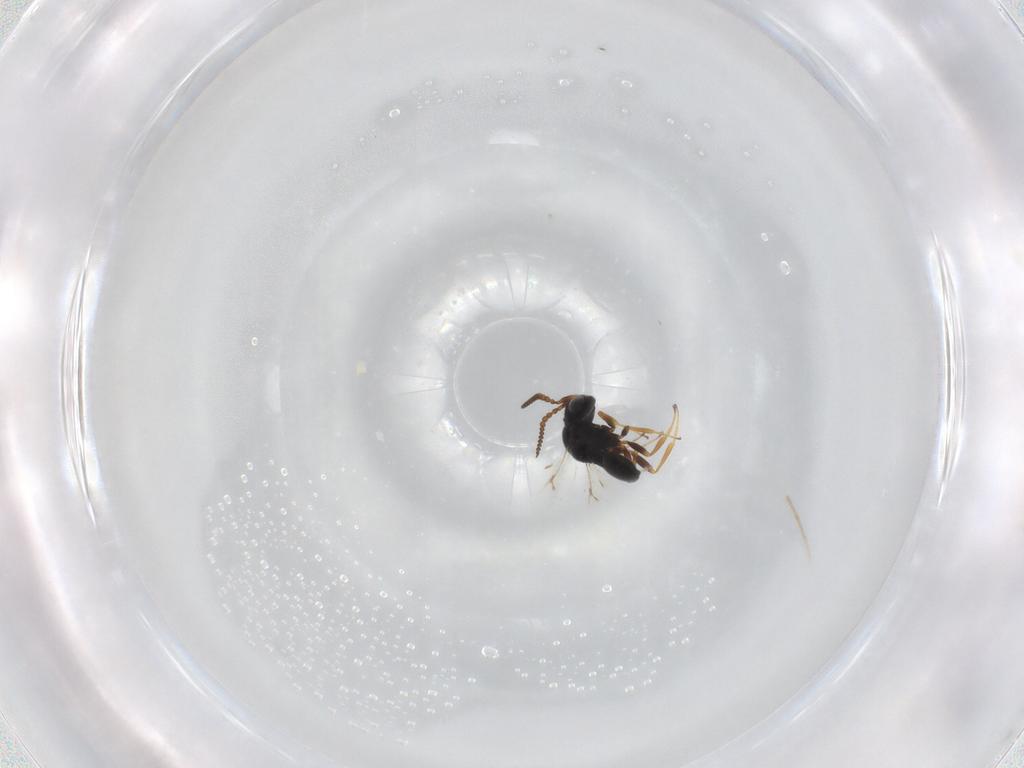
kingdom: Animalia
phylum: Arthropoda
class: Insecta
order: Hymenoptera
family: Scelionidae
